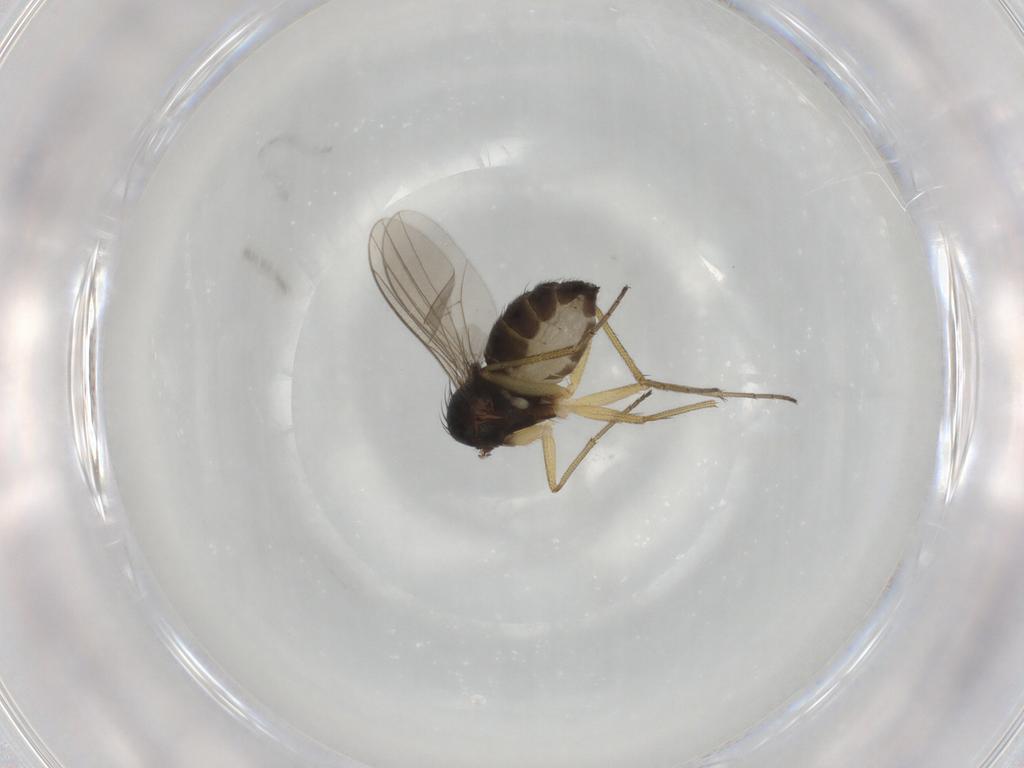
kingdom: Animalia
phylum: Arthropoda
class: Insecta
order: Diptera
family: Dolichopodidae
